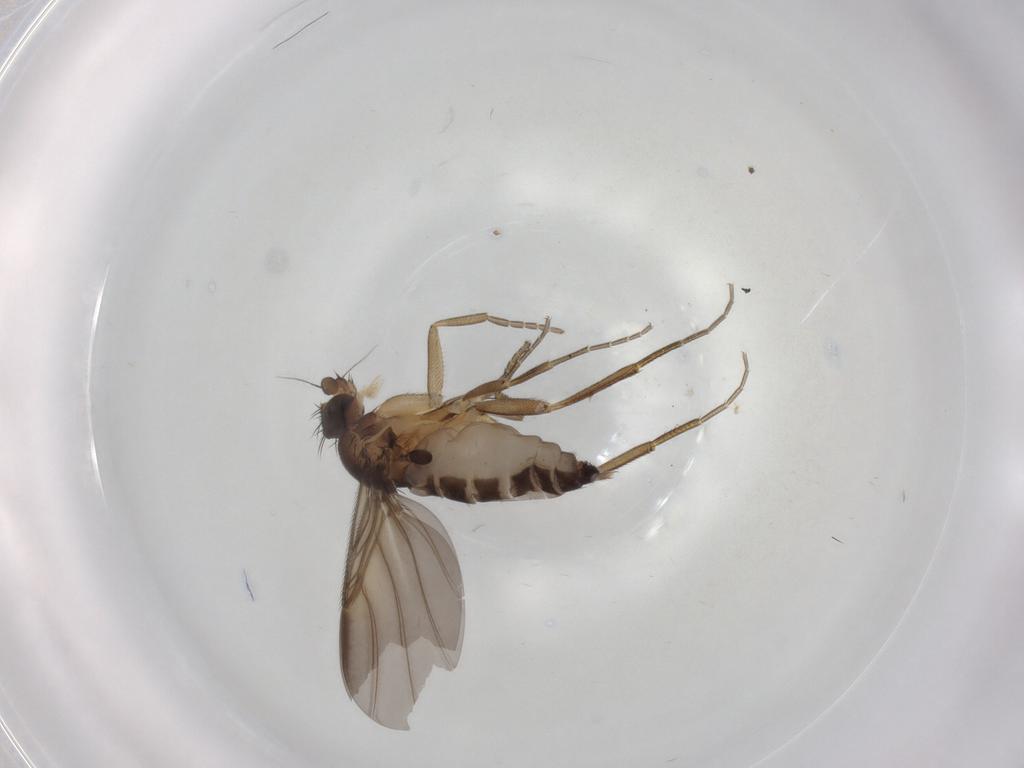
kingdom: Animalia
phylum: Arthropoda
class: Insecta
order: Diptera
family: Phoridae
